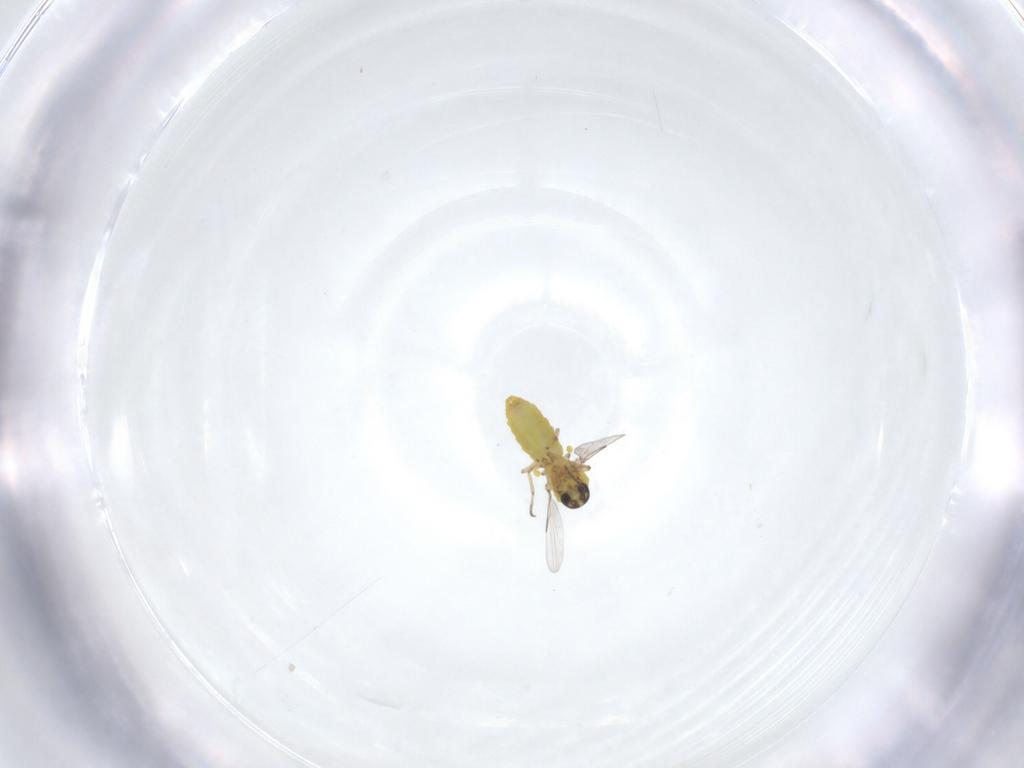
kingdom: Animalia
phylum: Arthropoda
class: Insecta
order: Diptera
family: Ceratopogonidae
